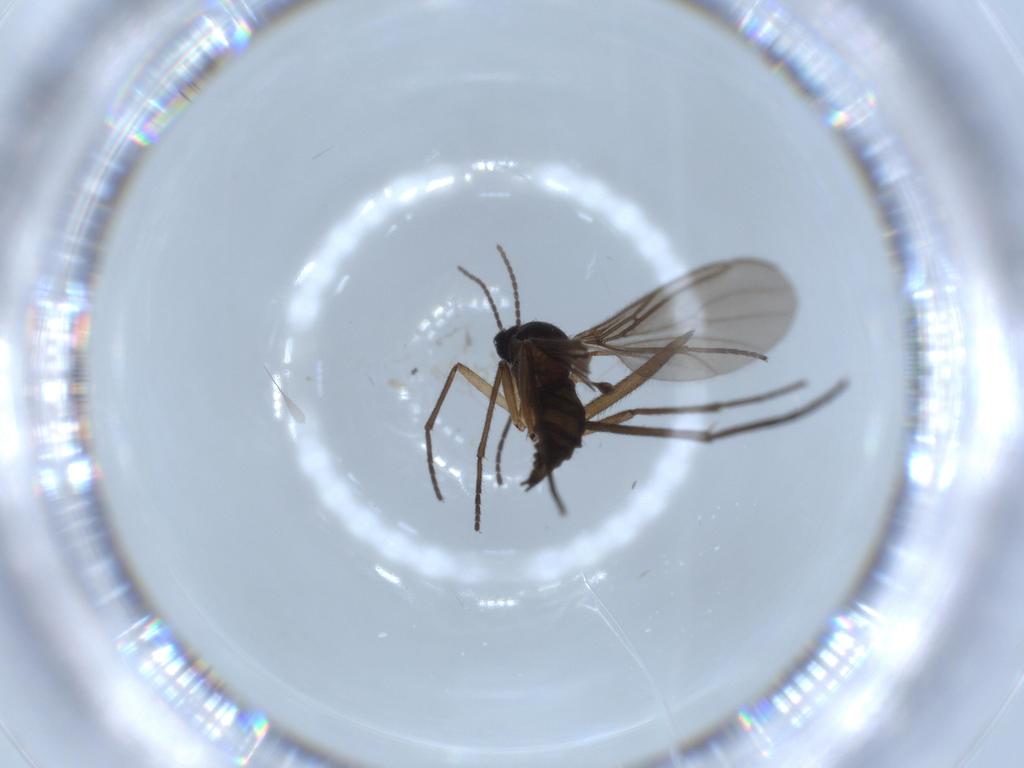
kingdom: Animalia
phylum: Arthropoda
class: Insecta
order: Diptera
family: Sciaridae
